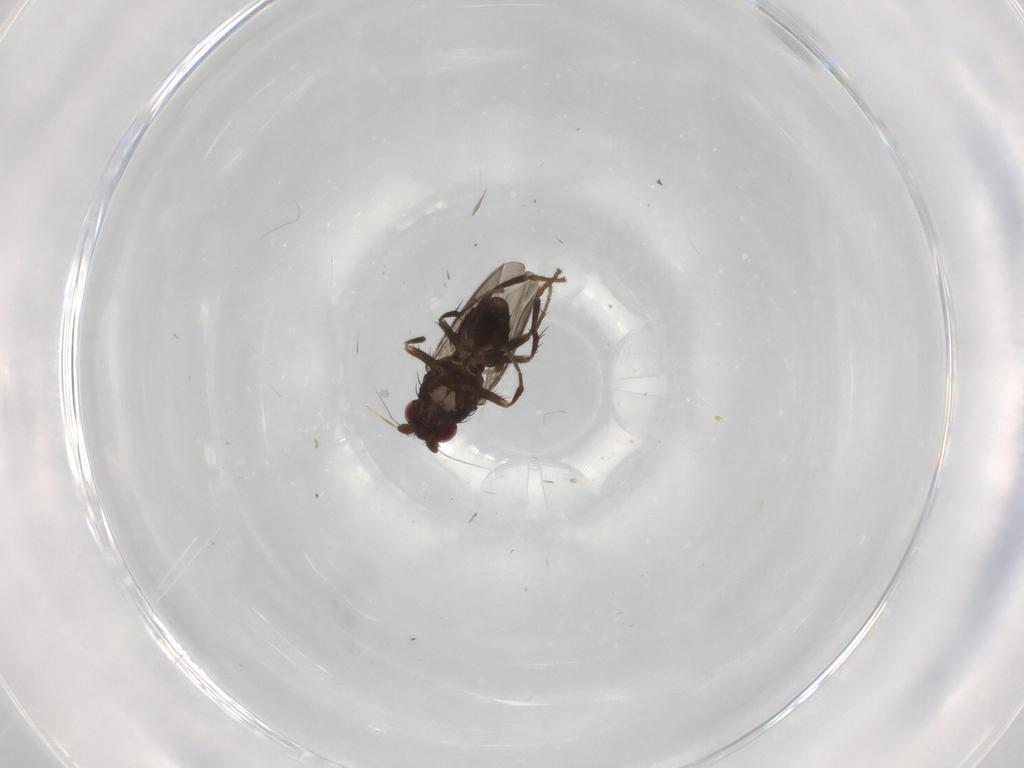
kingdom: Animalia
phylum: Arthropoda
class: Insecta
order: Diptera
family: Sphaeroceridae
